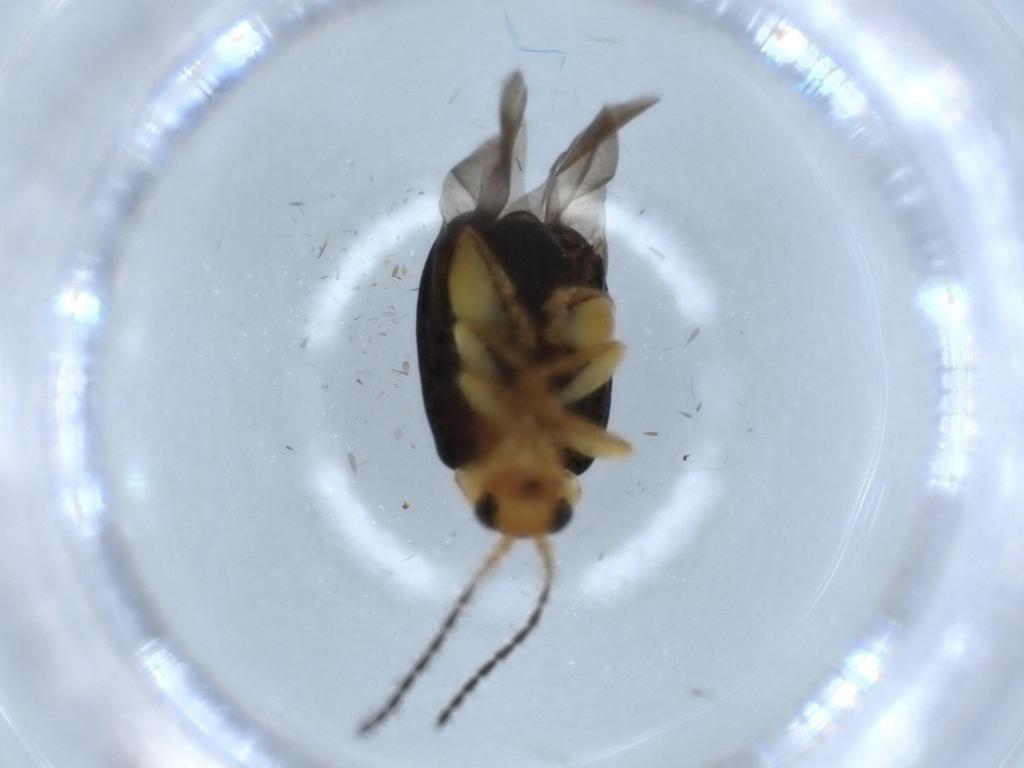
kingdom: Animalia
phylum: Arthropoda
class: Insecta
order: Coleoptera
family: Chrysomelidae
